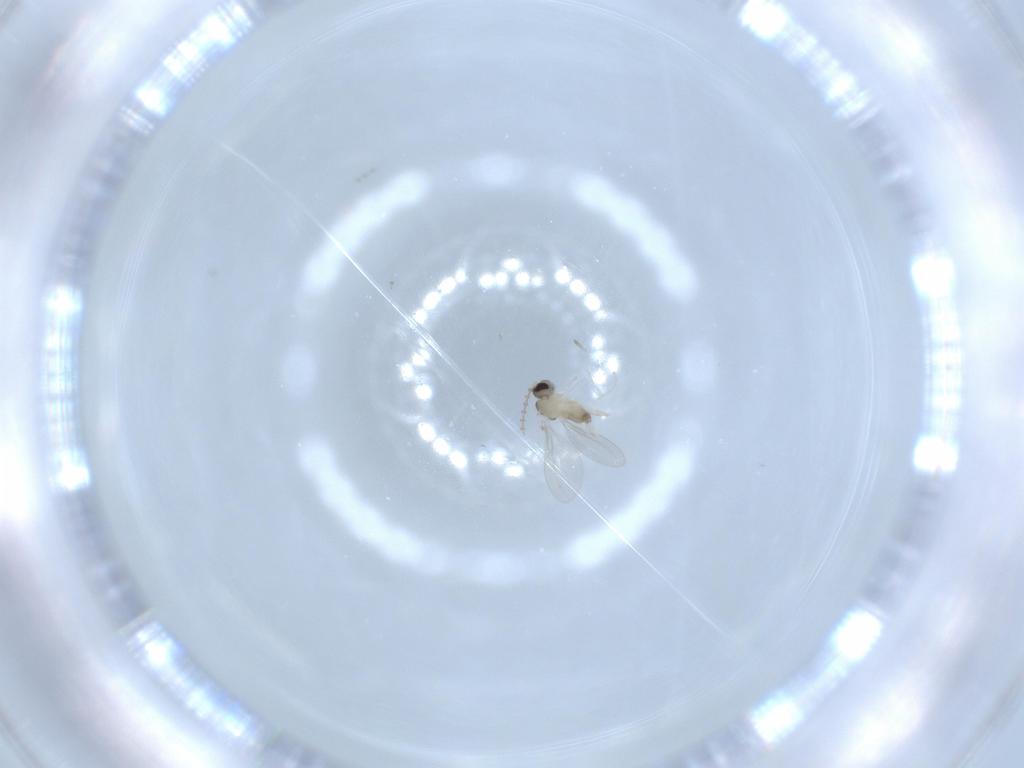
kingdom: Animalia
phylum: Arthropoda
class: Insecta
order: Diptera
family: Cecidomyiidae
